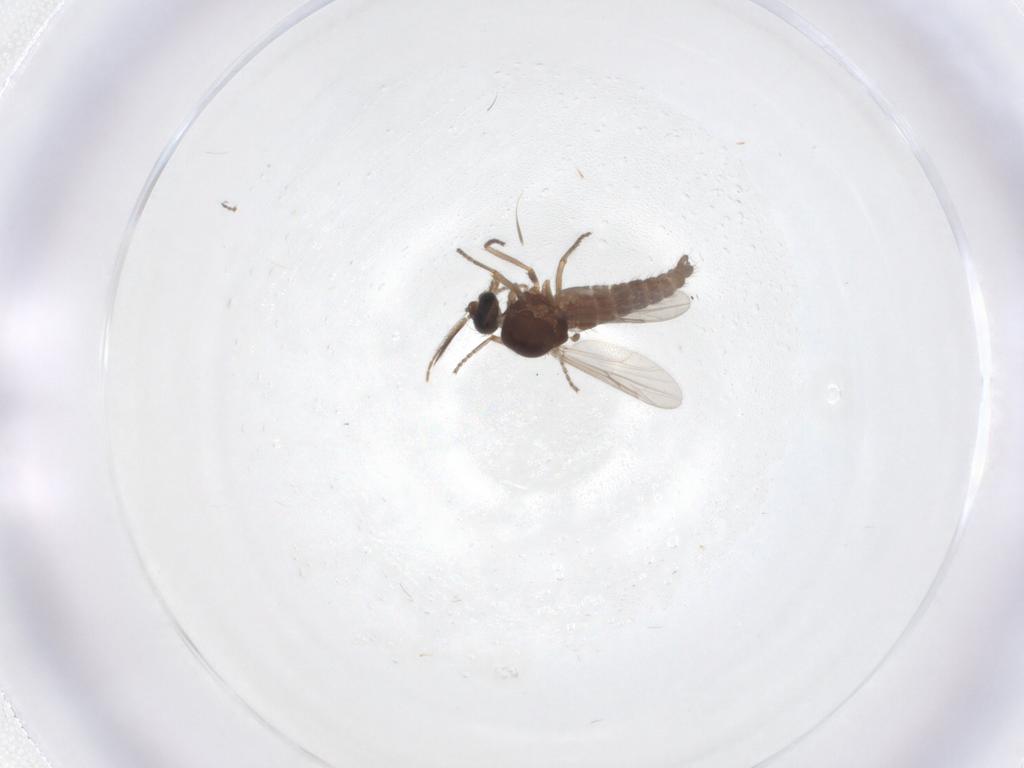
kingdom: Animalia
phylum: Arthropoda
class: Insecta
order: Diptera
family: Ceratopogonidae
